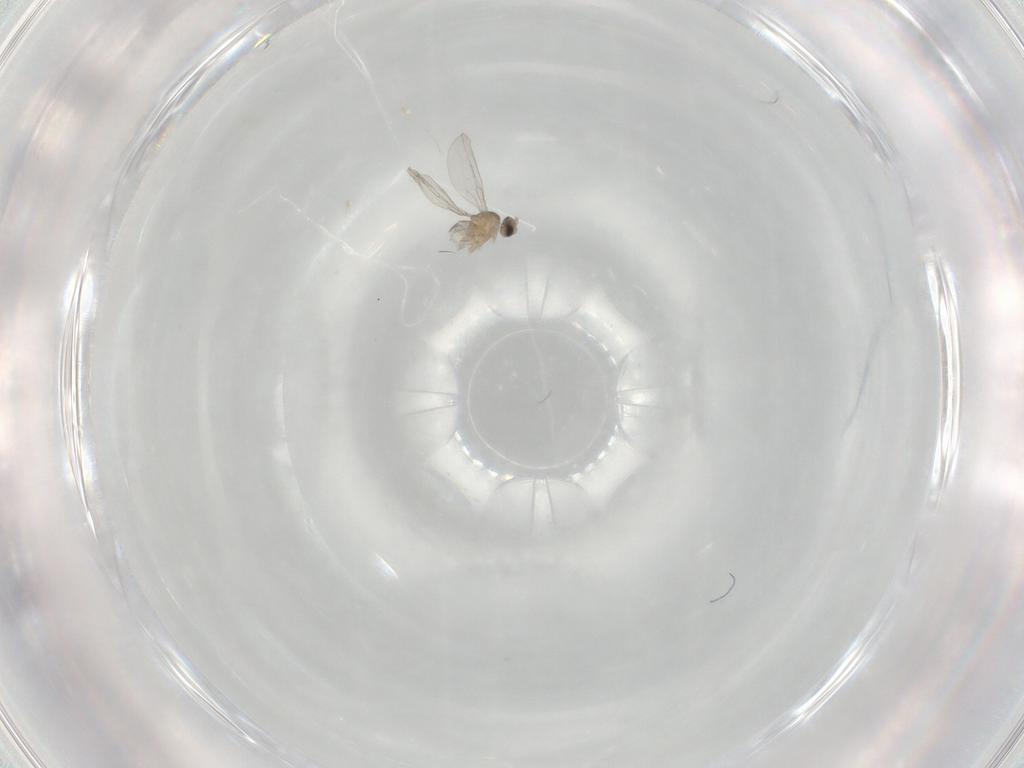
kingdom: Animalia
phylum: Arthropoda
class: Insecta
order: Diptera
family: Cecidomyiidae
